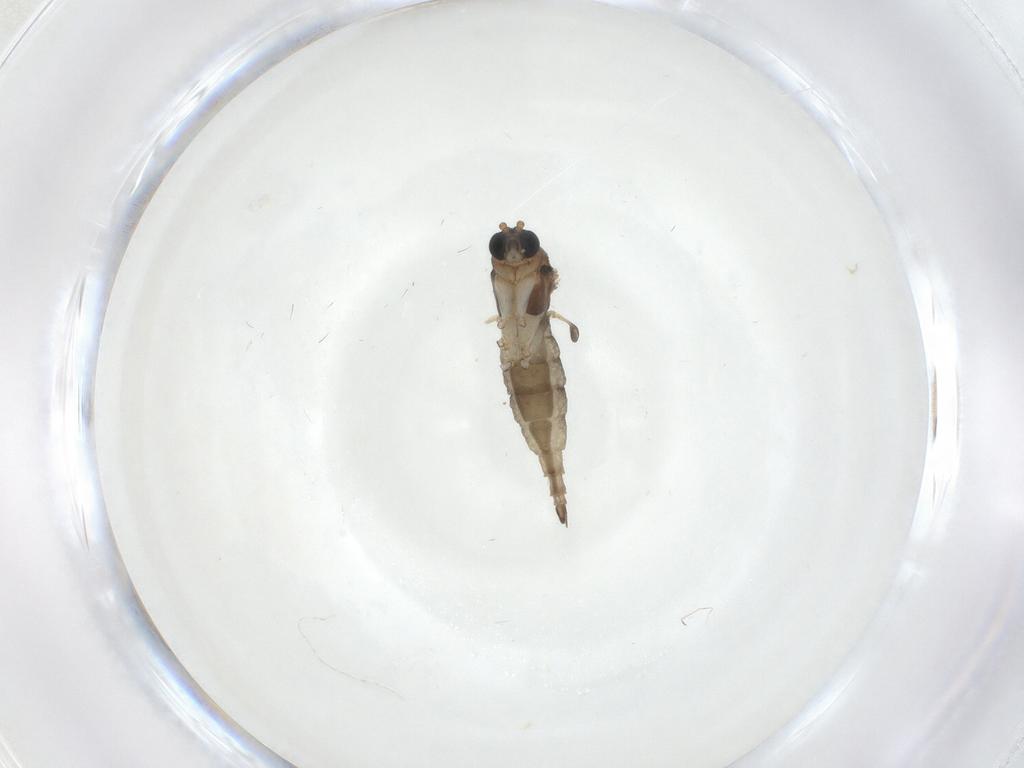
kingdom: Animalia
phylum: Arthropoda
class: Insecta
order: Diptera
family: Sciaridae
